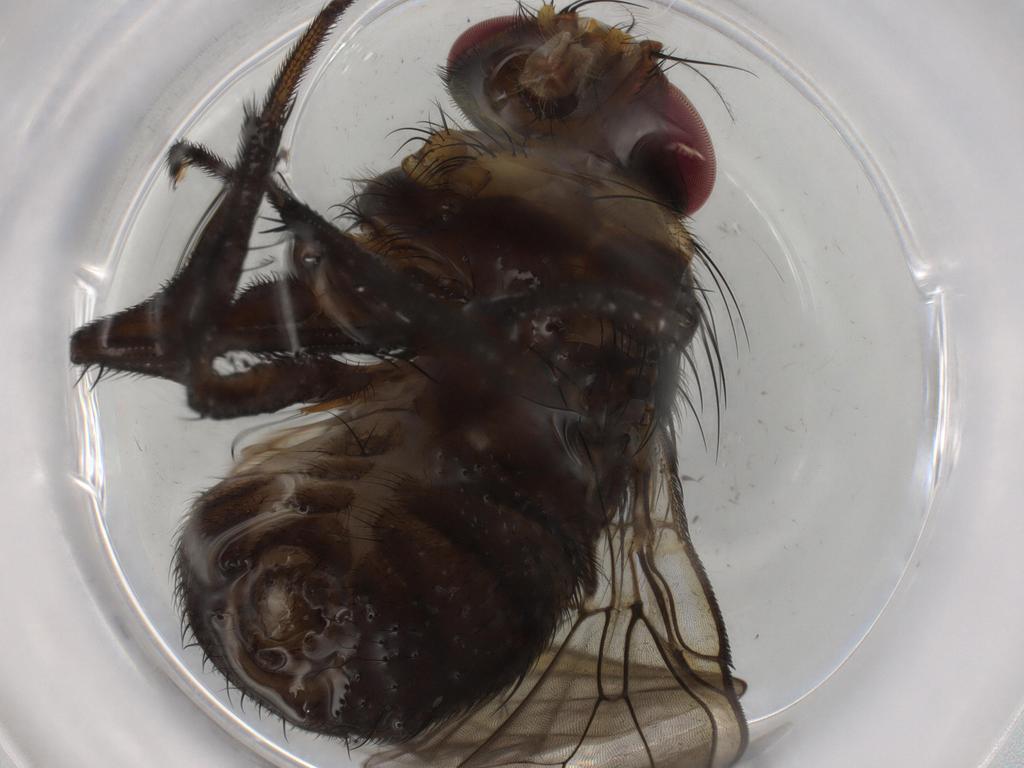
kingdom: Animalia
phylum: Arthropoda
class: Insecta
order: Diptera
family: Muscidae
